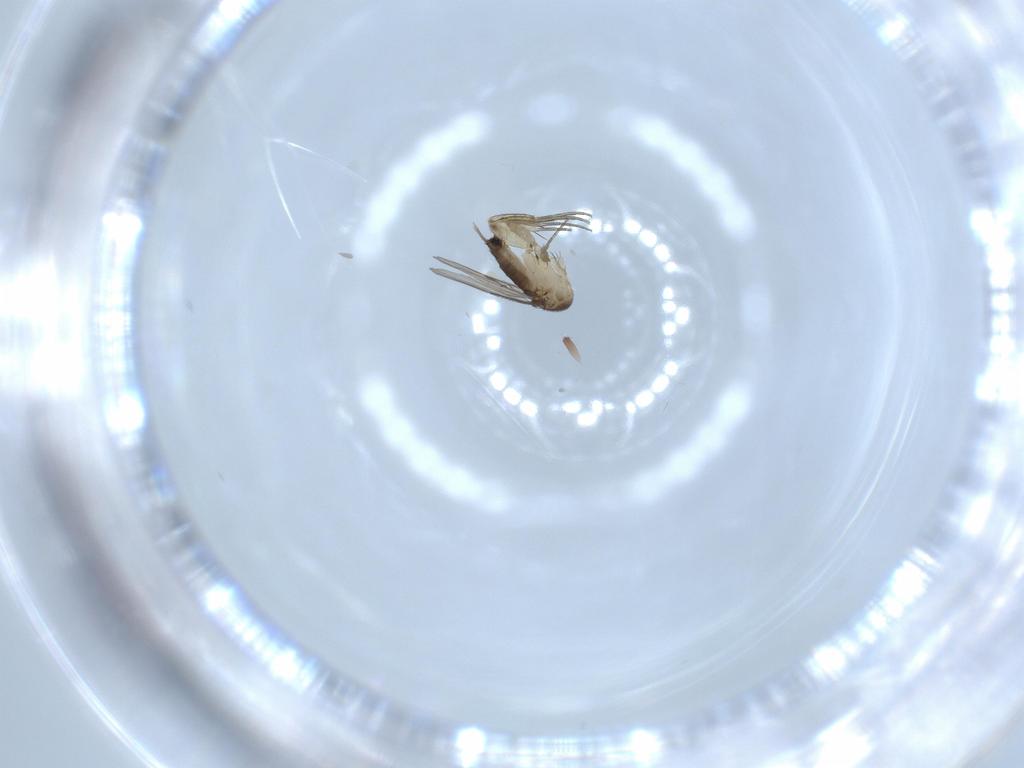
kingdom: Animalia
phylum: Arthropoda
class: Insecta
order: Diptera
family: Phoridae
